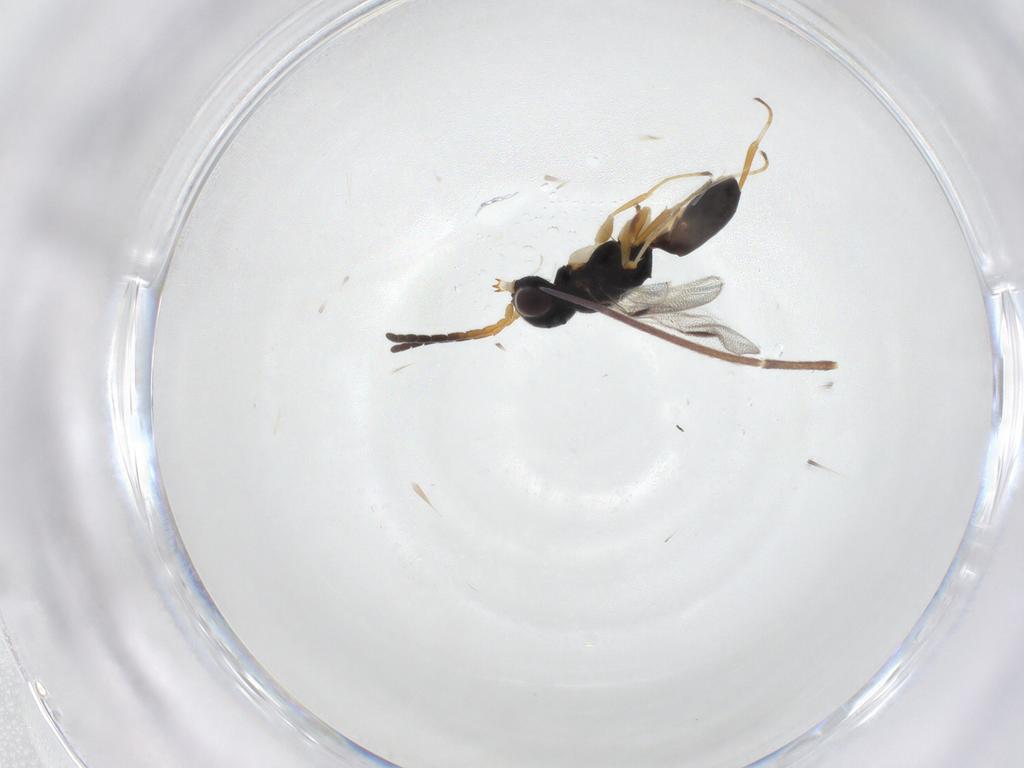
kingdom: Animalia
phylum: Arthropoda
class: Insecta
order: Hymenoptera
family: Dryinidae
